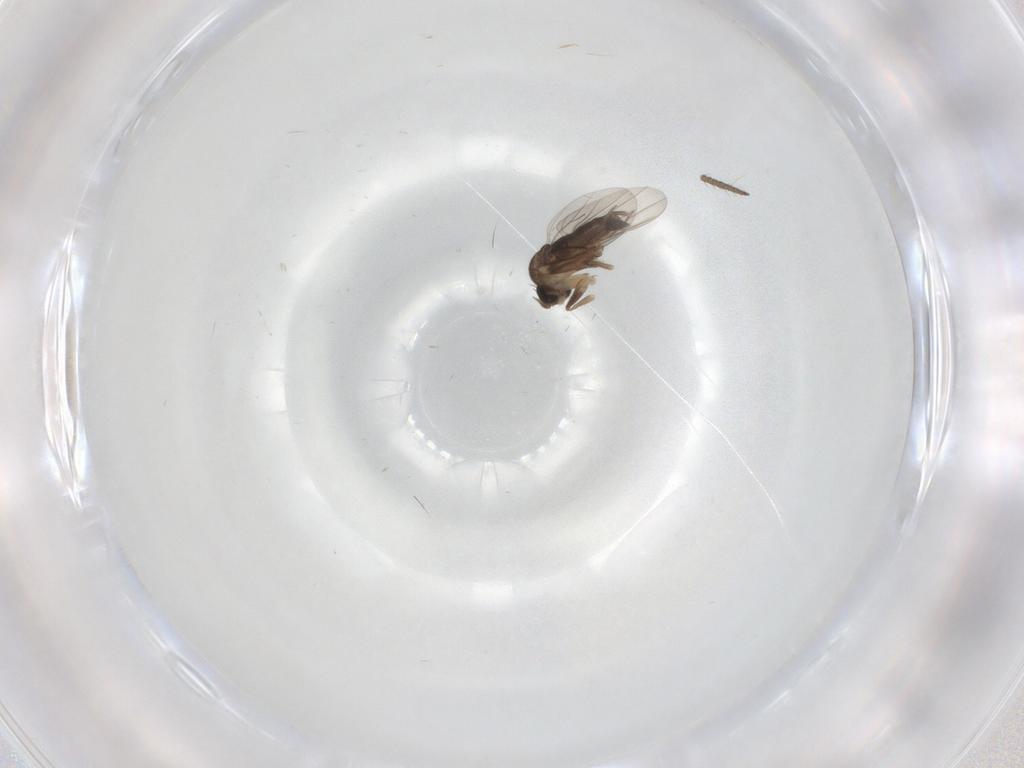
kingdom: Animalia
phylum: Arthropoda
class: Insecta
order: Diptera
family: Phoridae
